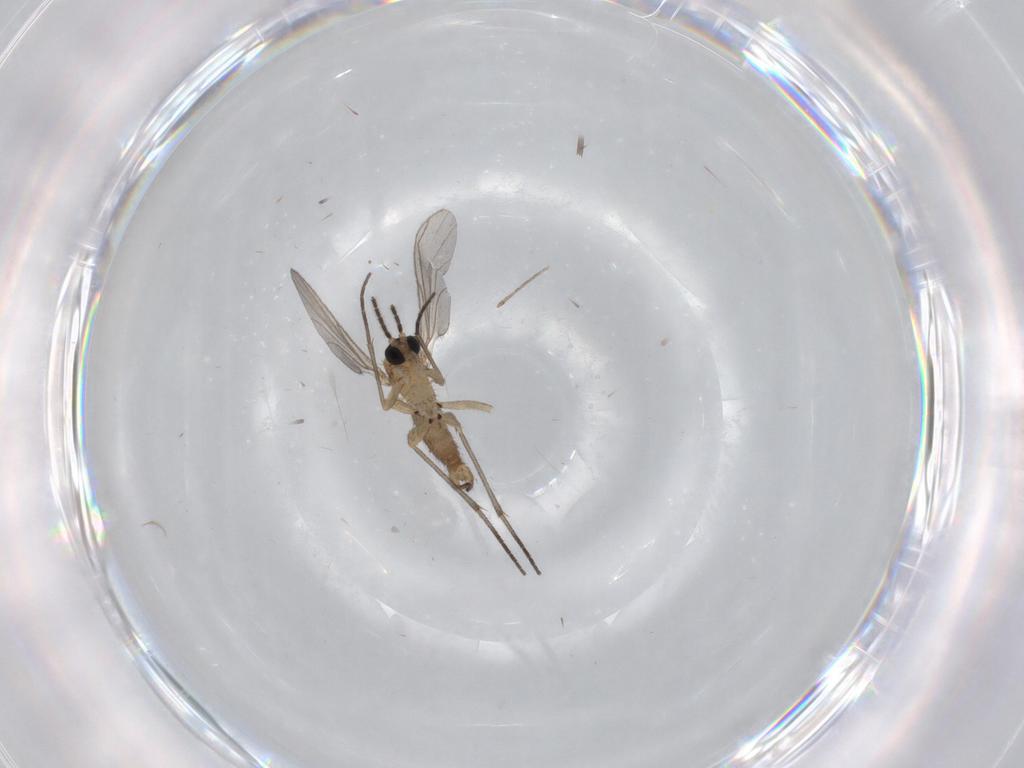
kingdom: Animalia
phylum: Arthropoda
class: Insecta
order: Diptera
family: Sciaridae
